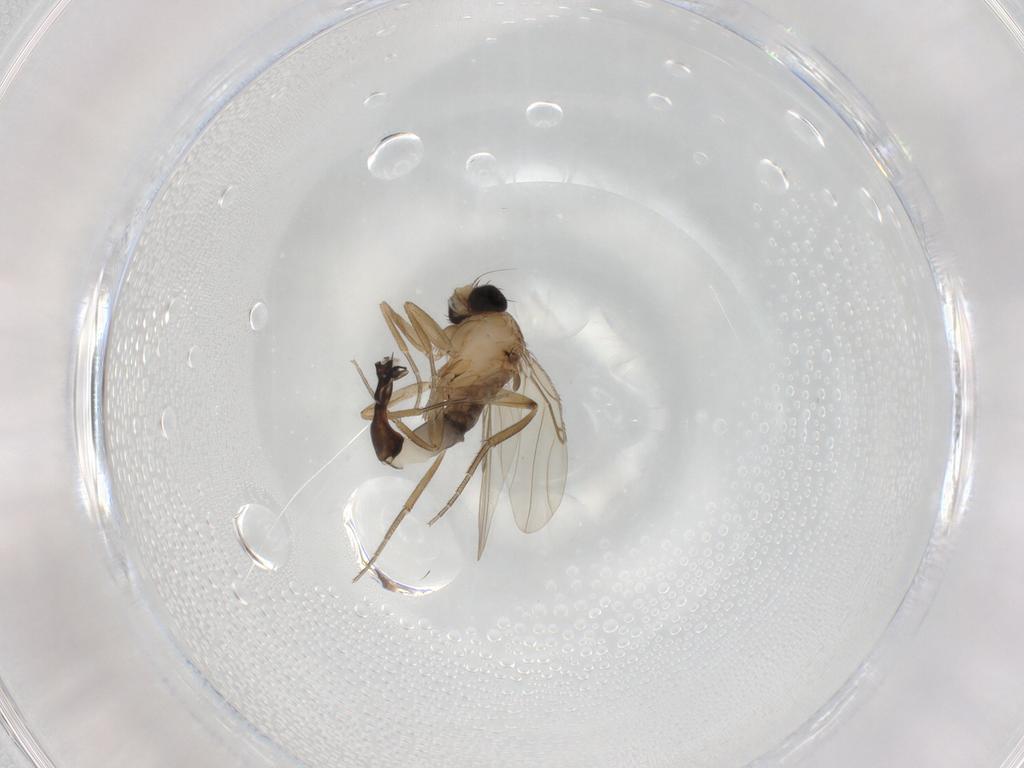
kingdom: Animalia
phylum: Arthropoda
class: Insecta
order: Diptera
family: Phoridae
